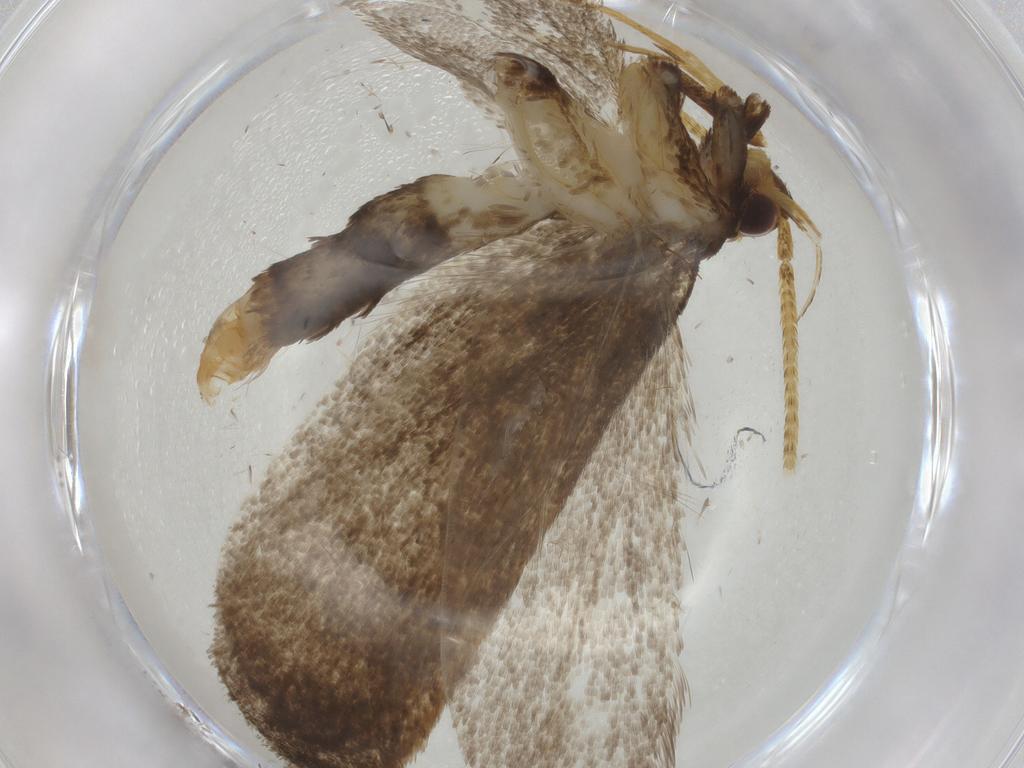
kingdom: Animalia
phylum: Arthropoda
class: Insecta
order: Lepidoptera
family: Lecithoceridae
